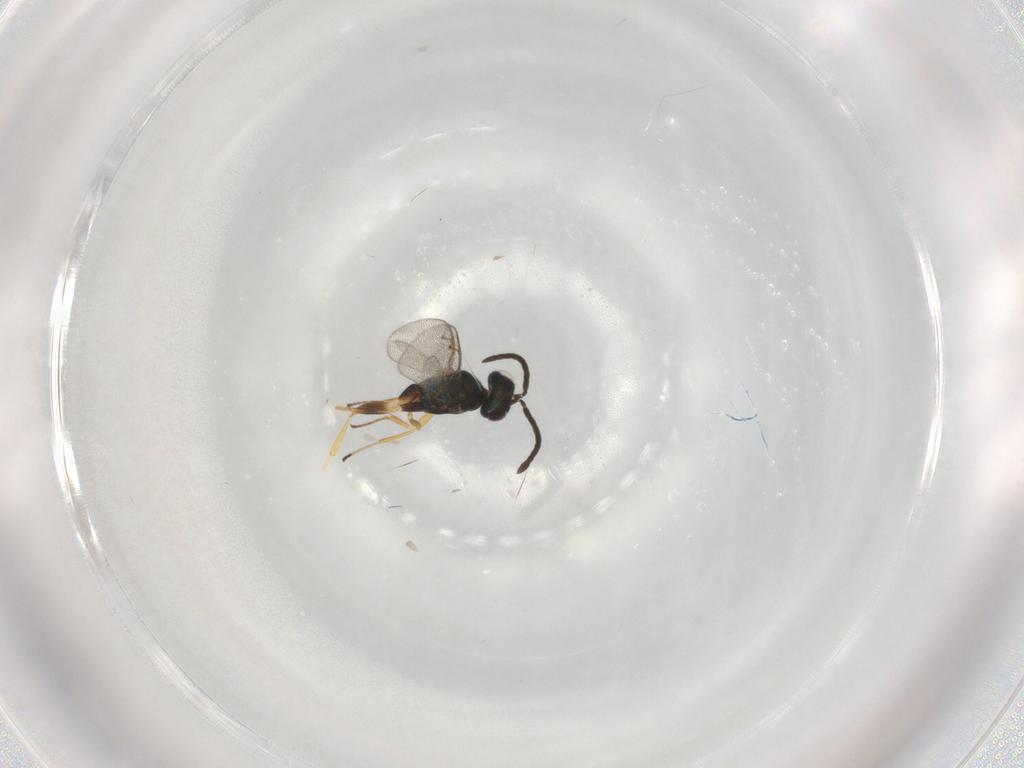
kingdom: Animalia
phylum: Arthropoda
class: Insecta
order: Hymenoptera
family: Encyrtidae
